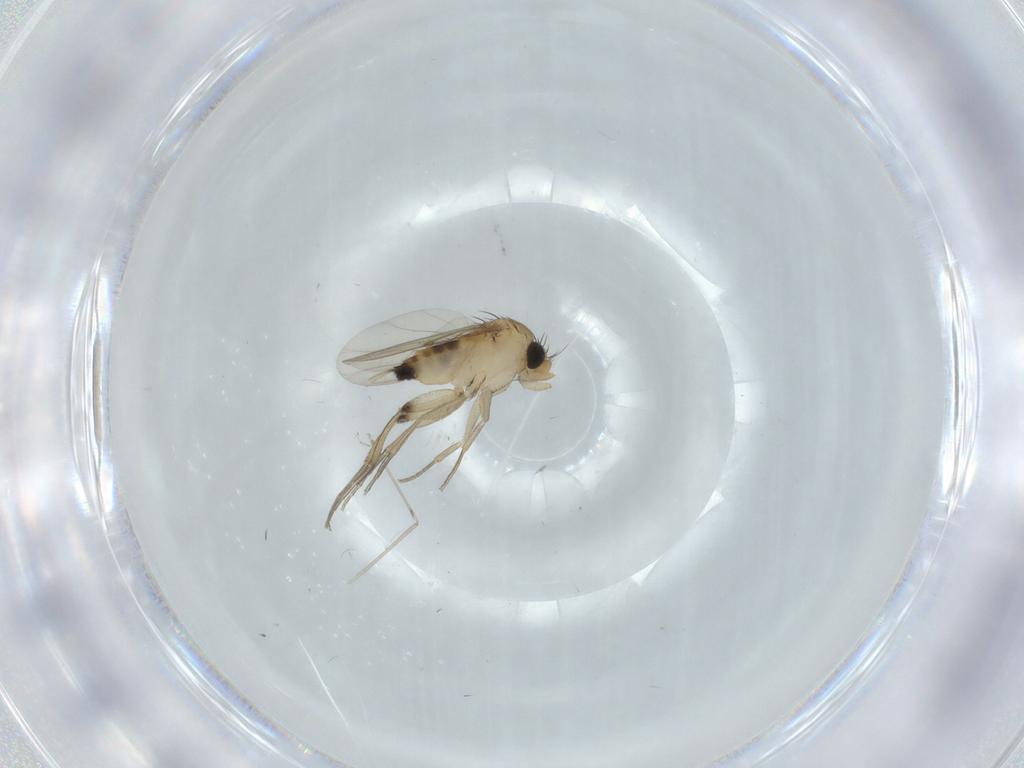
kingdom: Animalia
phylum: Arthropoda
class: Insecta
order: Diptera
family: Phoridae
